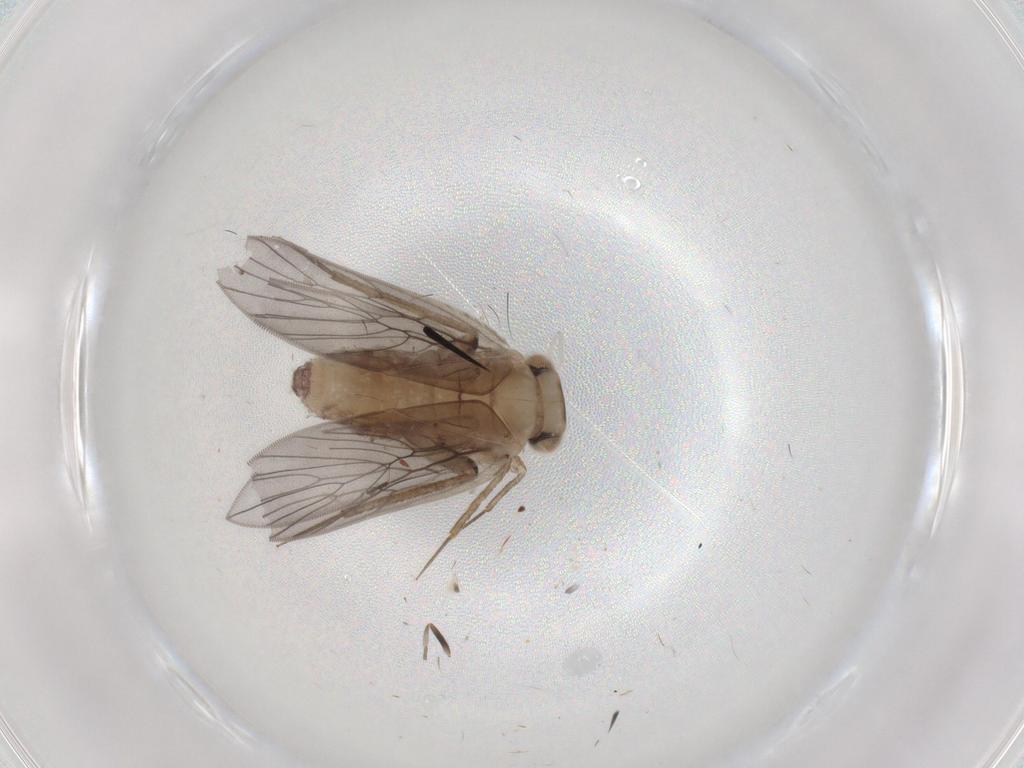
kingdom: Animalia
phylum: Arthropoda
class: Insecta
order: Psocodea
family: Lepidopsocidae
